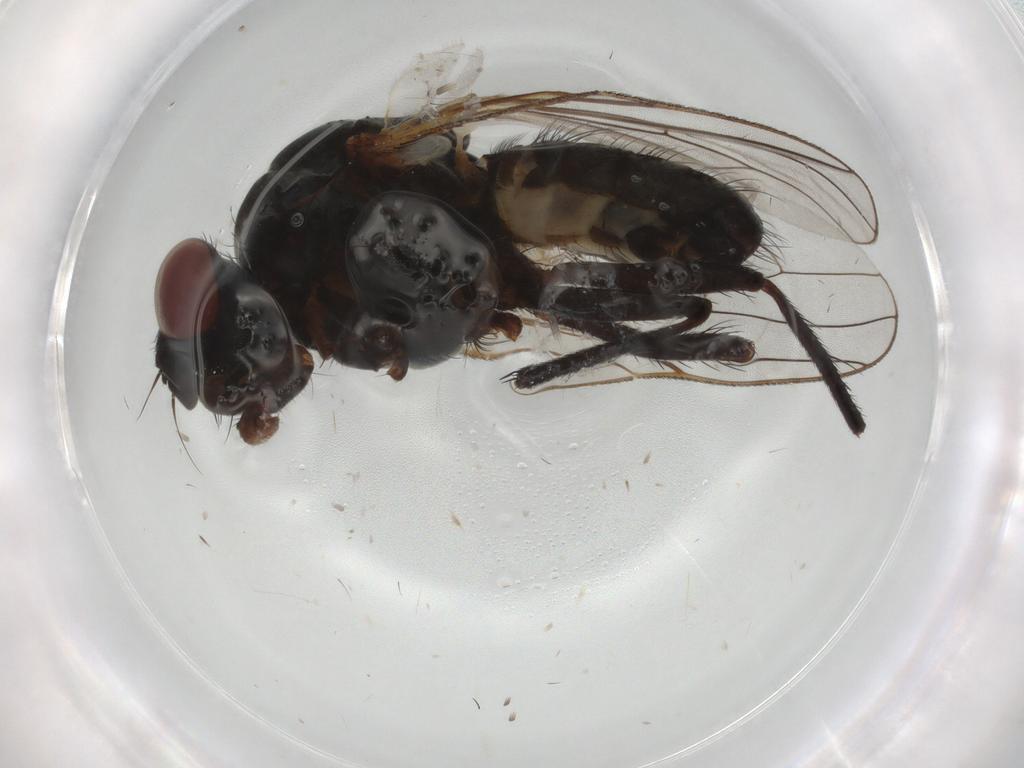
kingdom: Animalia
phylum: Arthropoda
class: Insecta
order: Diptera
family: Anthomyiidae
